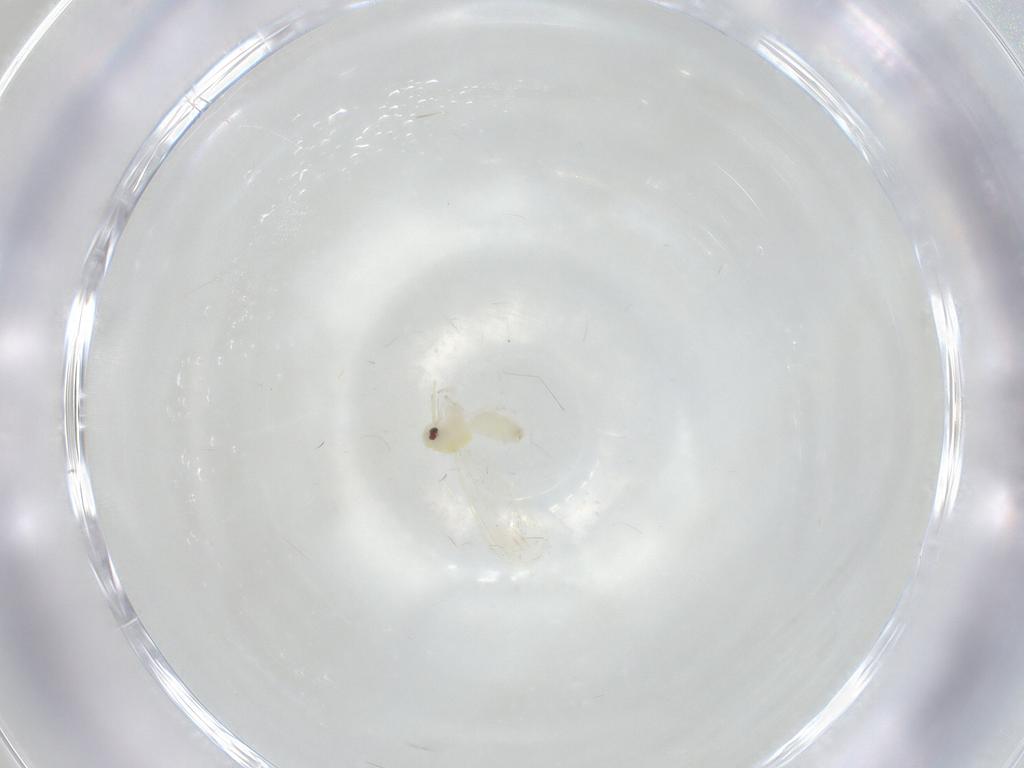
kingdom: Animalia
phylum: Arthropoda
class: Insecta
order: Hemiptera
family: Aleyrodidae
